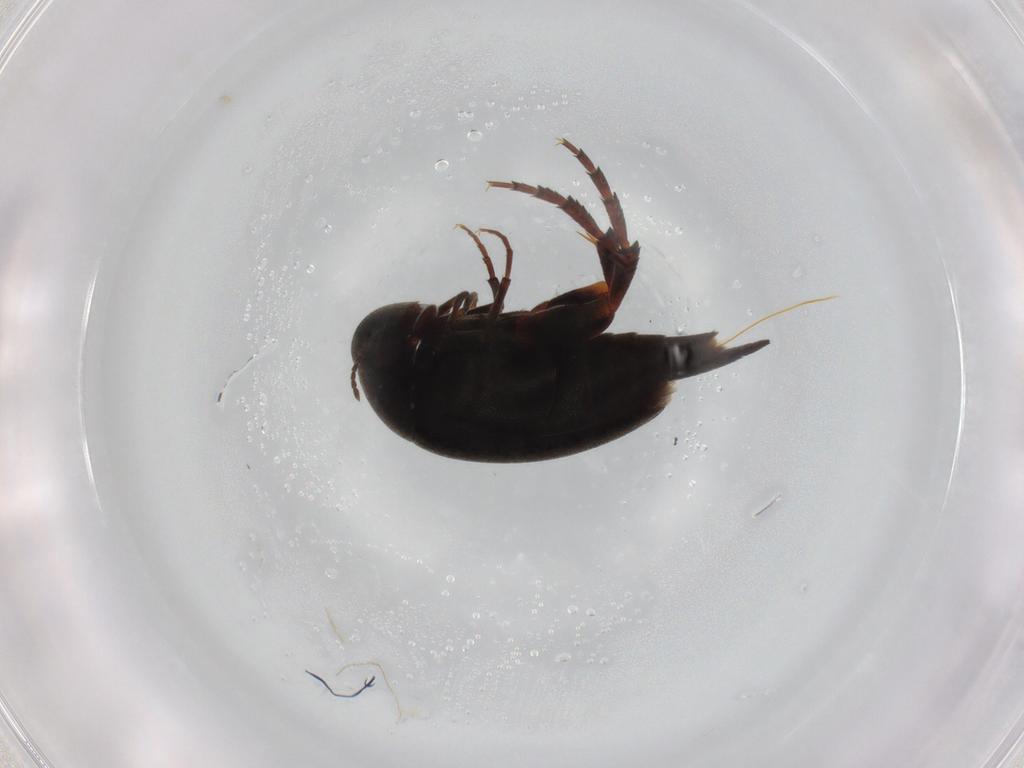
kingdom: Animalia
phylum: Arthropoda
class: Insecta
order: Coleoptera
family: Mordellidae
